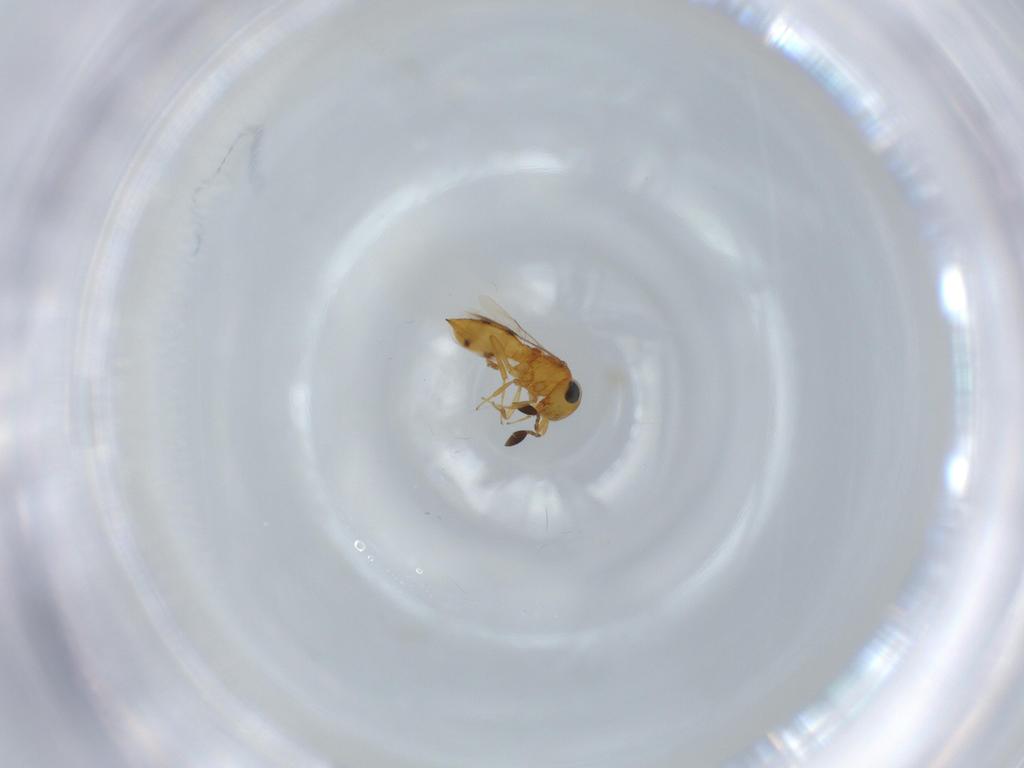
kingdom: Animalia
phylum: Arthropoda
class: Insecta
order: Hymenoptera
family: Scelionidae
